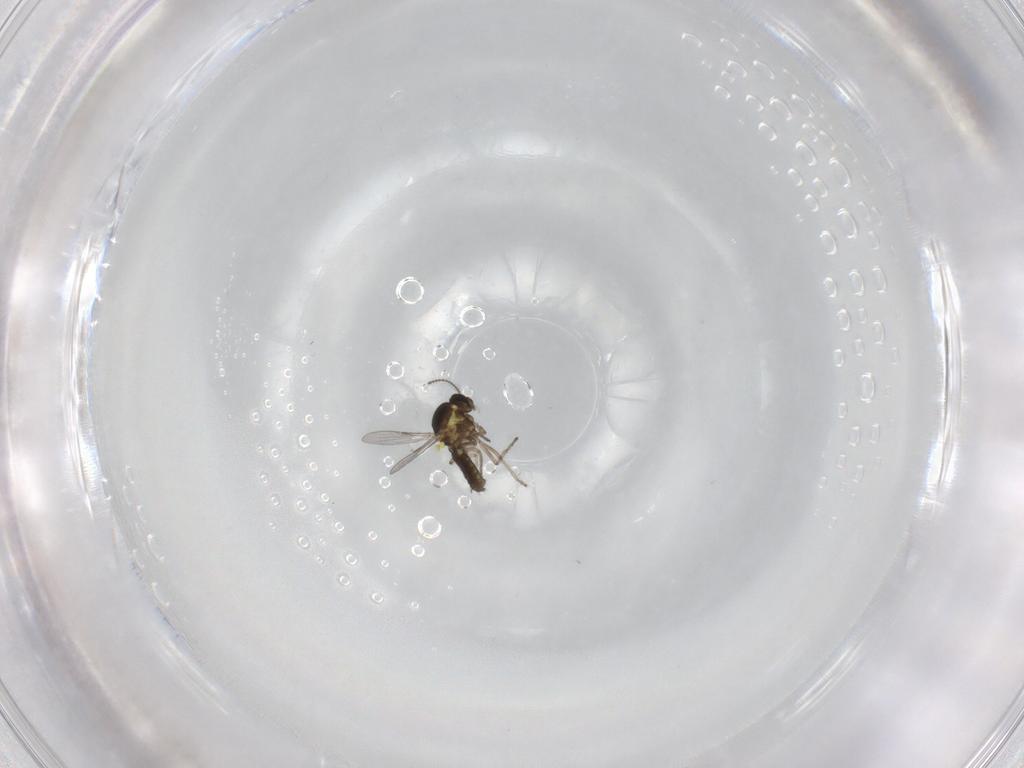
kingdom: Animalia
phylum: Arthropoda
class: Insecta
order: Diptera
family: Ceratopogonidae
